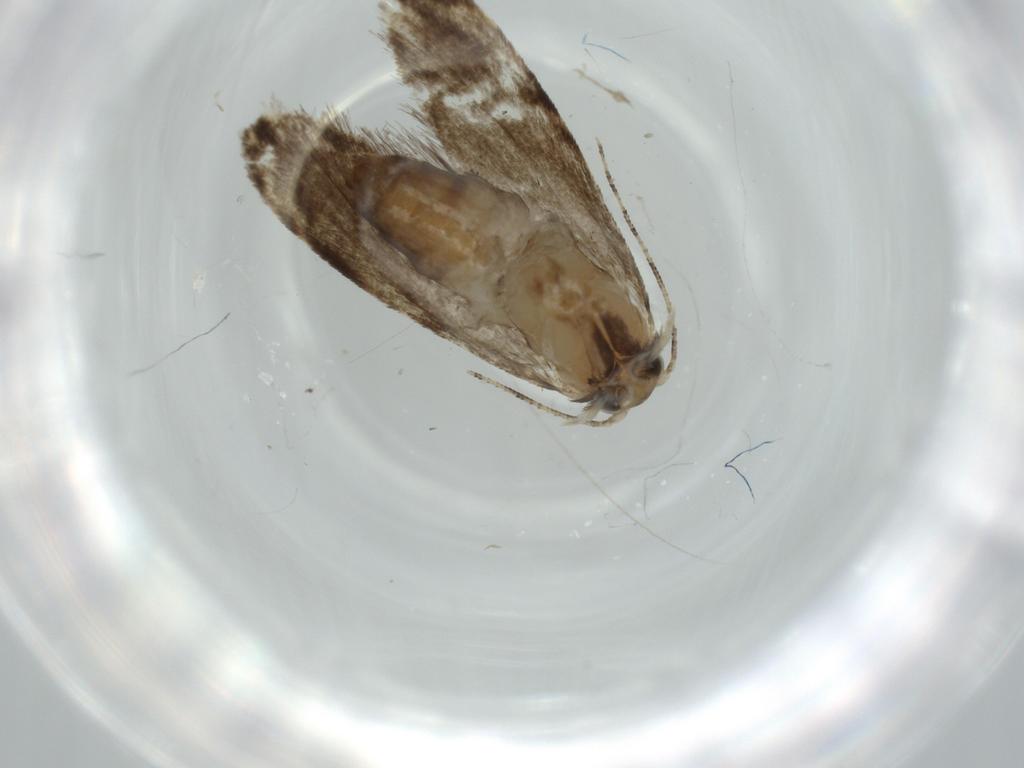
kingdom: Animalia
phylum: Arthropoda
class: Insecta
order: Lepidoptera
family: Tineidae
